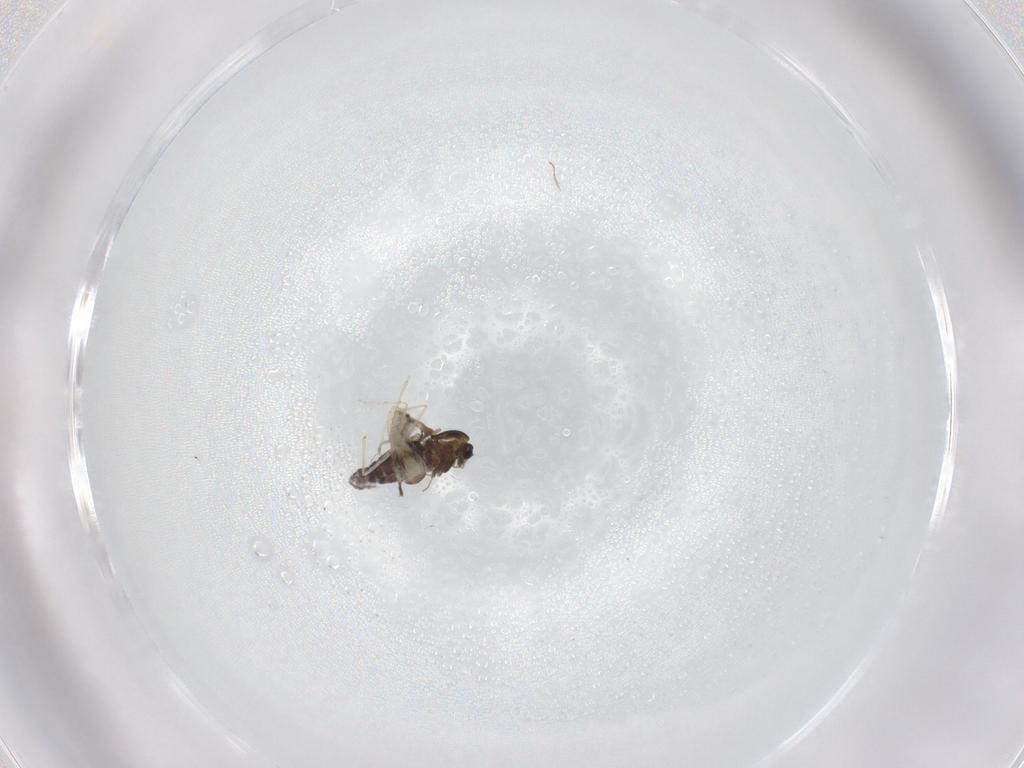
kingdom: Animalia
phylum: Arthropoda
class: Insecta
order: Diptera
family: Chironomidae
